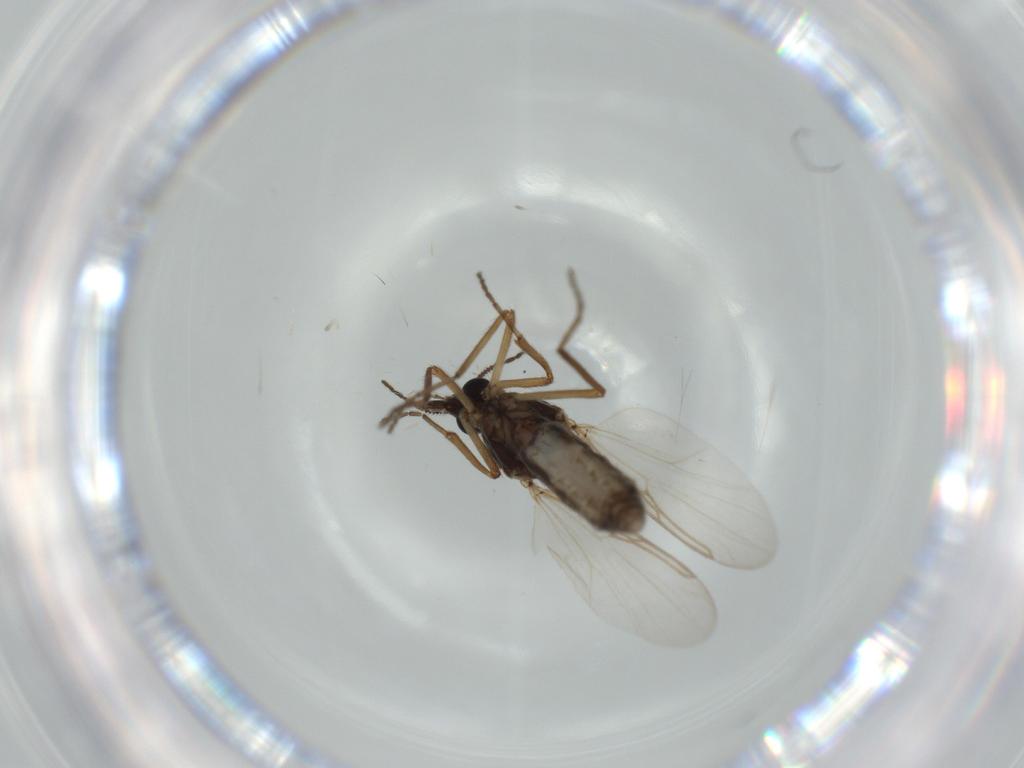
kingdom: Animalia
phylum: Arthropoda
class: Insecta
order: Diptera
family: Ceratopogonidae
